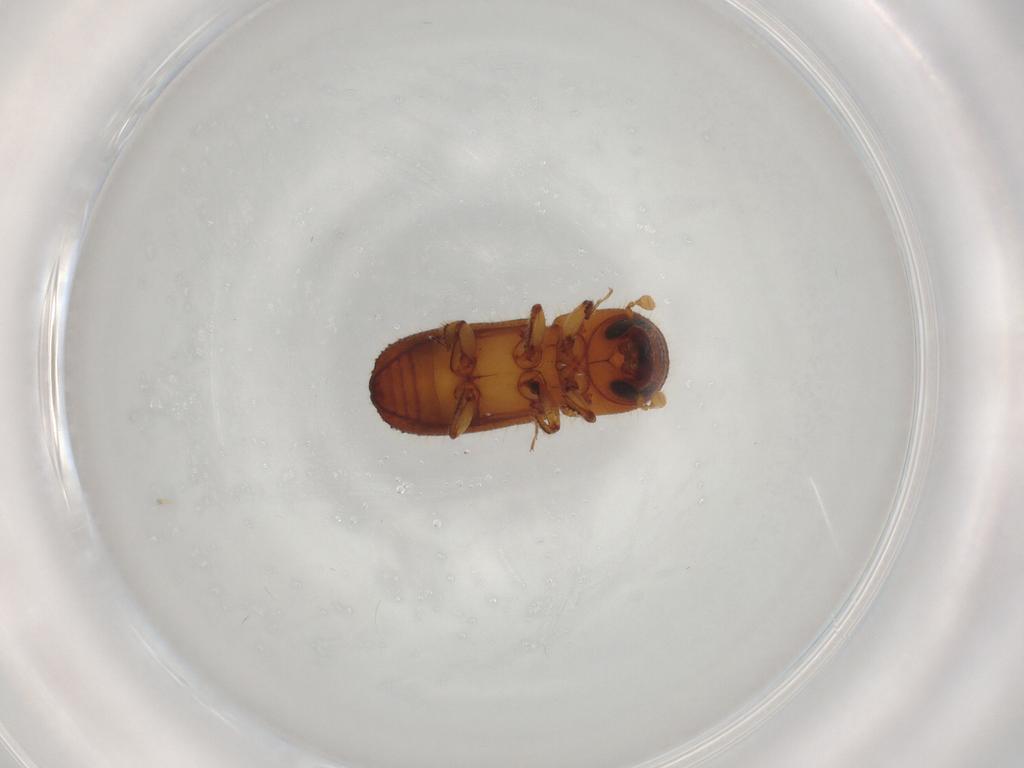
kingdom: Animalia
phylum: Arthropoda
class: Insecta
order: Coleoptera
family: Curculionidae
